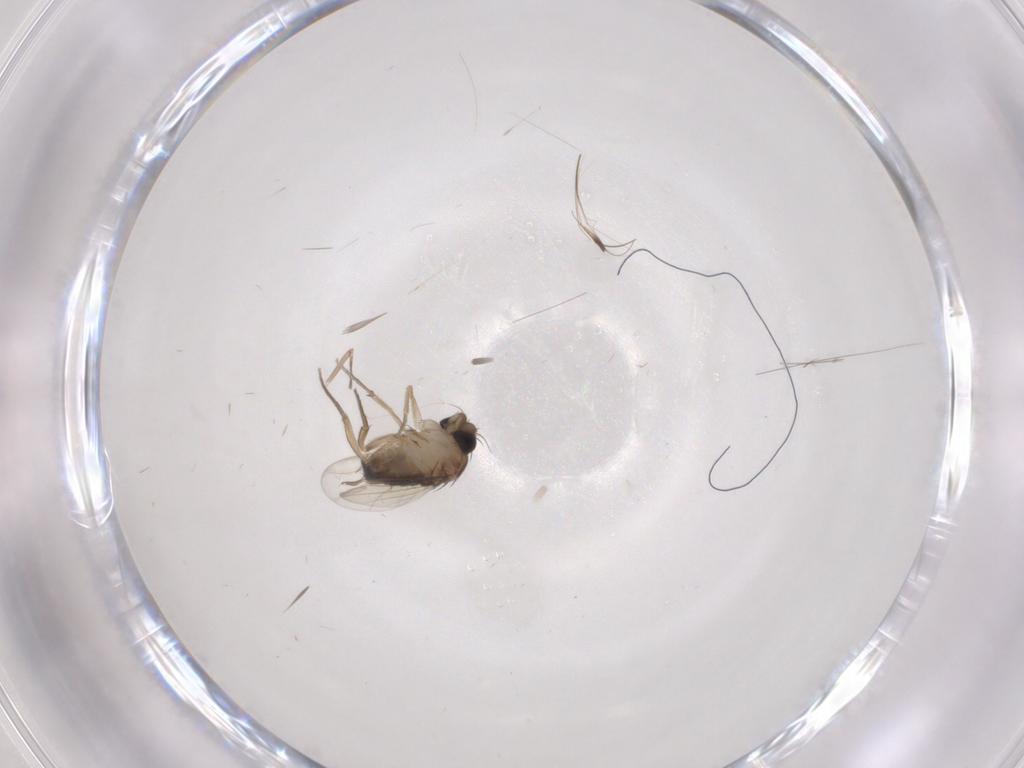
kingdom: Animalia
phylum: Arthropoda
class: Insecta
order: Diptera
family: Ceratopogonidae
